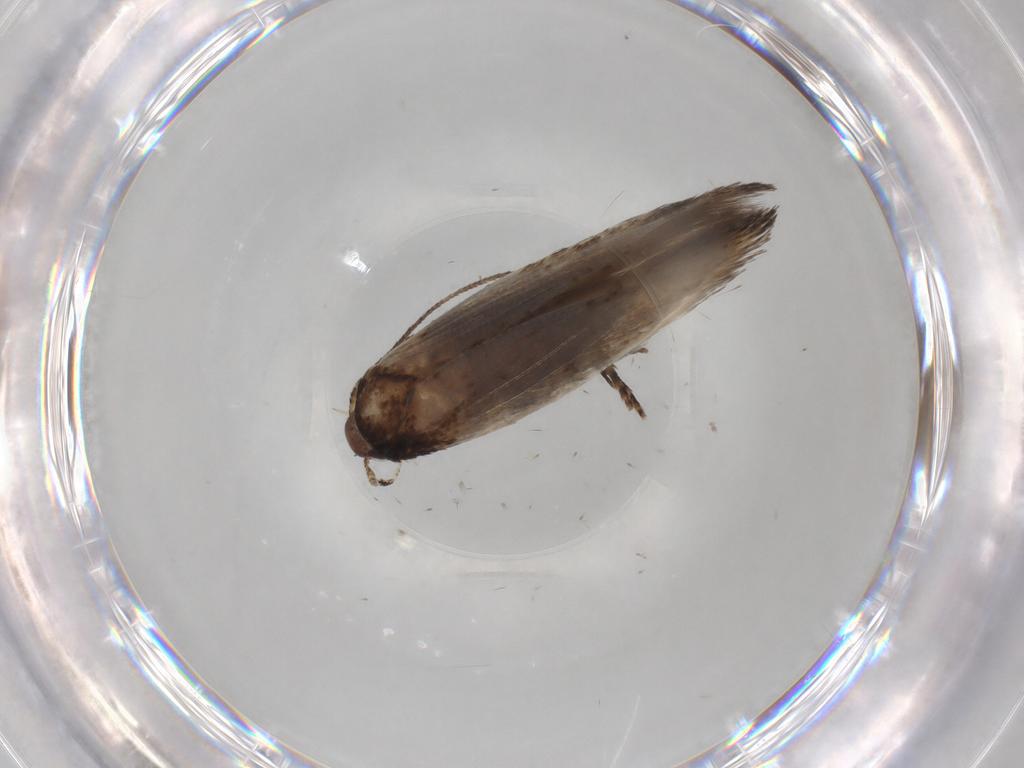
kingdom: Animalia
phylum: Arthropoda
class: Insecta
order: Lepidoptera
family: Cosmopterigidae
